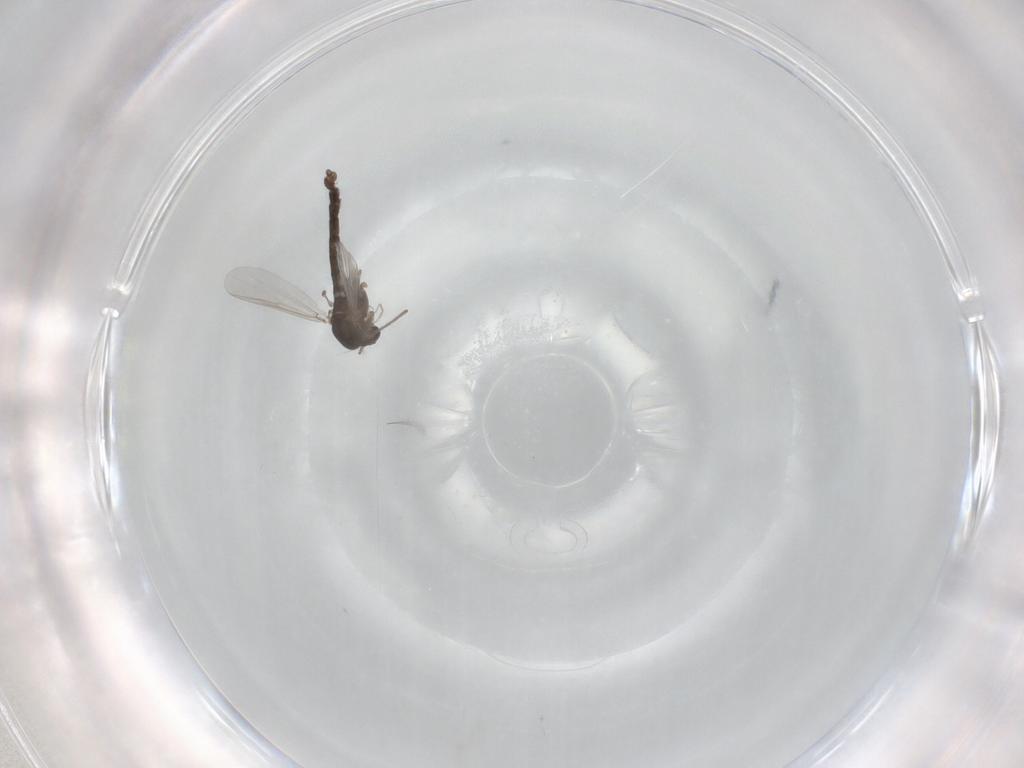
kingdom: Animalia
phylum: Arthropoda
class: Insecta
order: Diptera
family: Chironomidae
